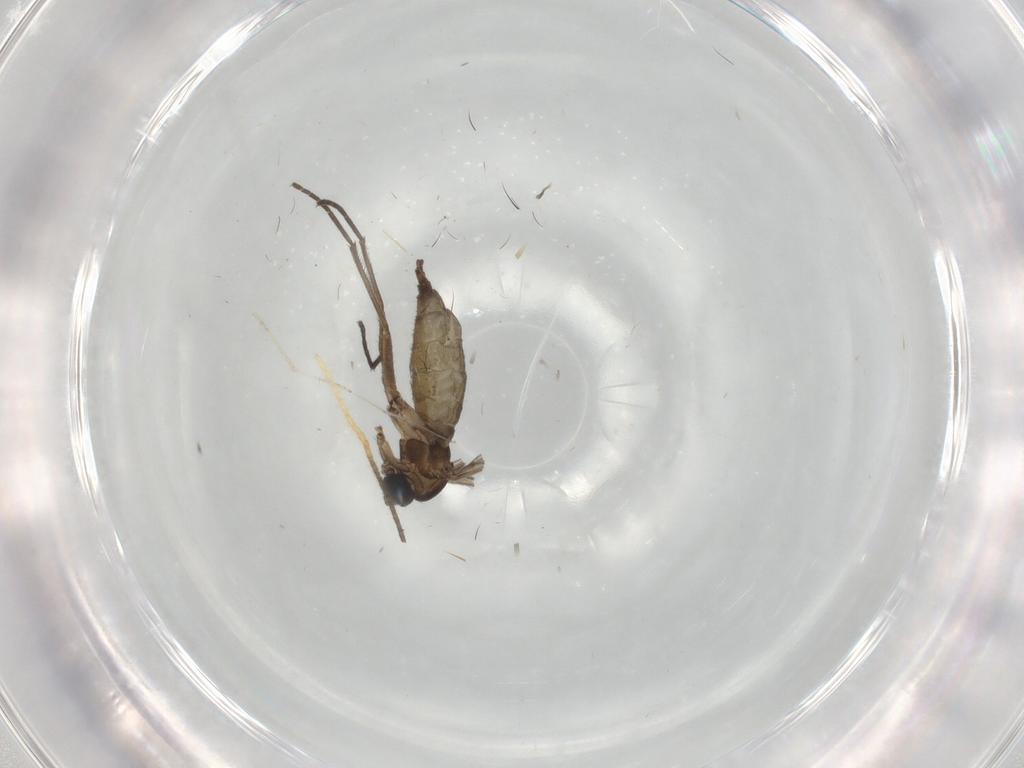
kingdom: Animalia
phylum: Arthropoda
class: Insecta
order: Diptera
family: Sciaridae
